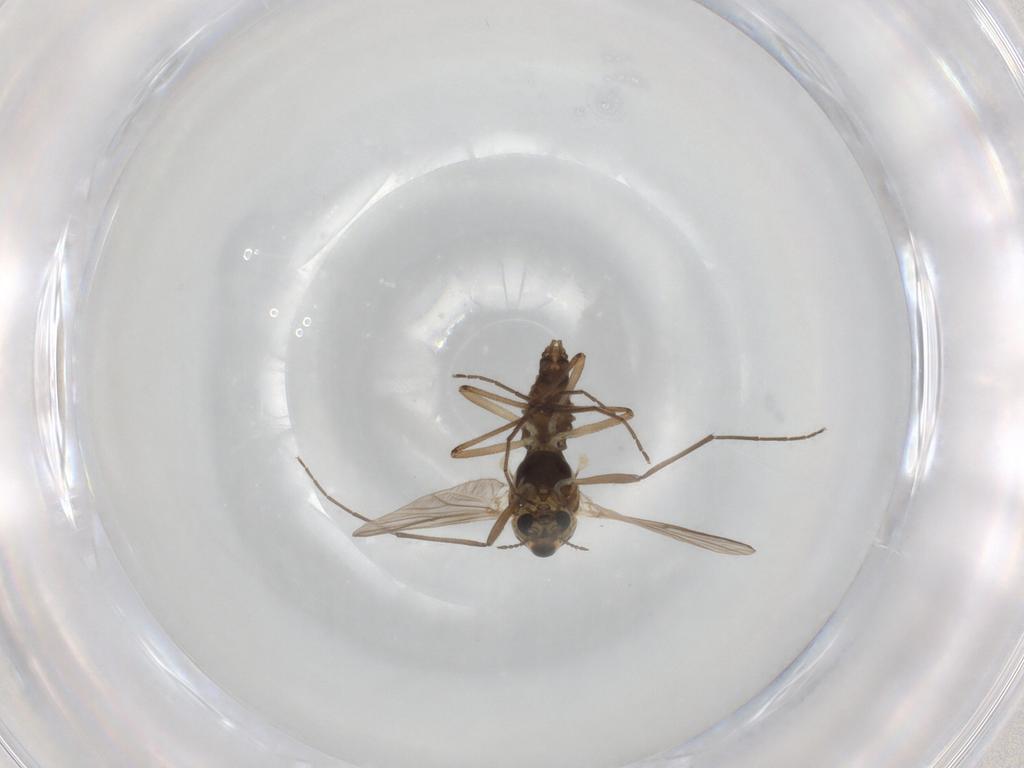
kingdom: Animalia
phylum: Arthropoda
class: Insecta
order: Diptera
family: Chironomidae
